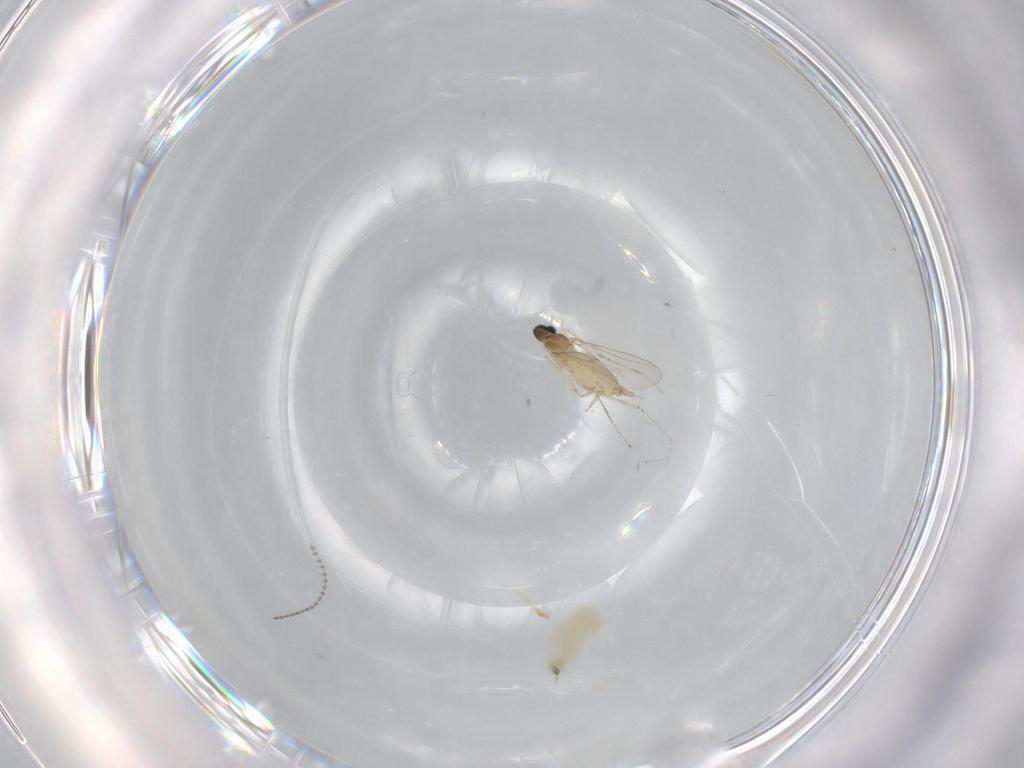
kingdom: Animalia
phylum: Arthropoda
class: Insecta
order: Diptera
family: Cecidomyiidae
